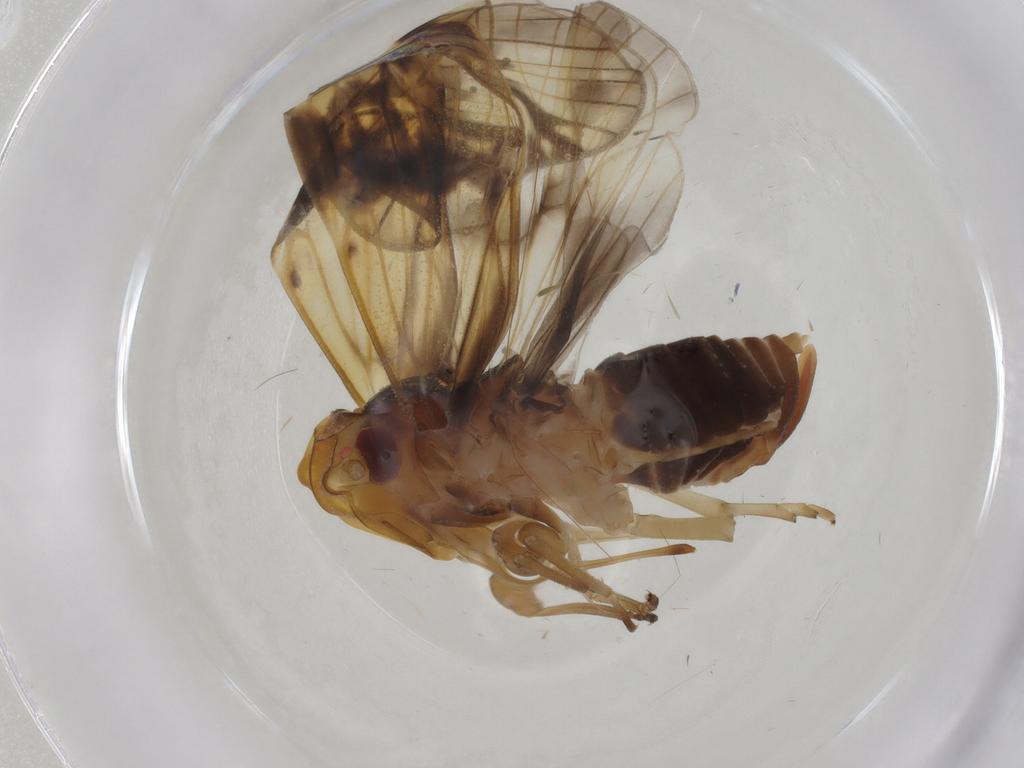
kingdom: Animalia
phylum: Arthropoda
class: Insecta
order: Hemiptera
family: Cixiidae
